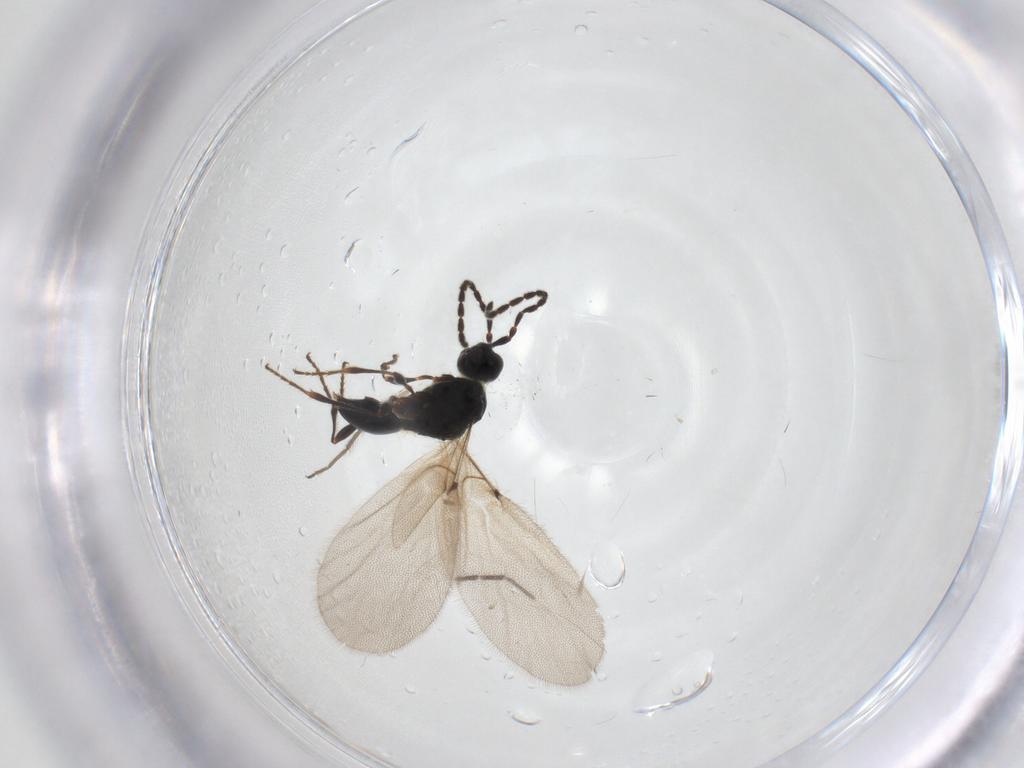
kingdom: Animalia
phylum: Arthropoda
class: Insecta
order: Hymenoptera
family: Diapriidae
